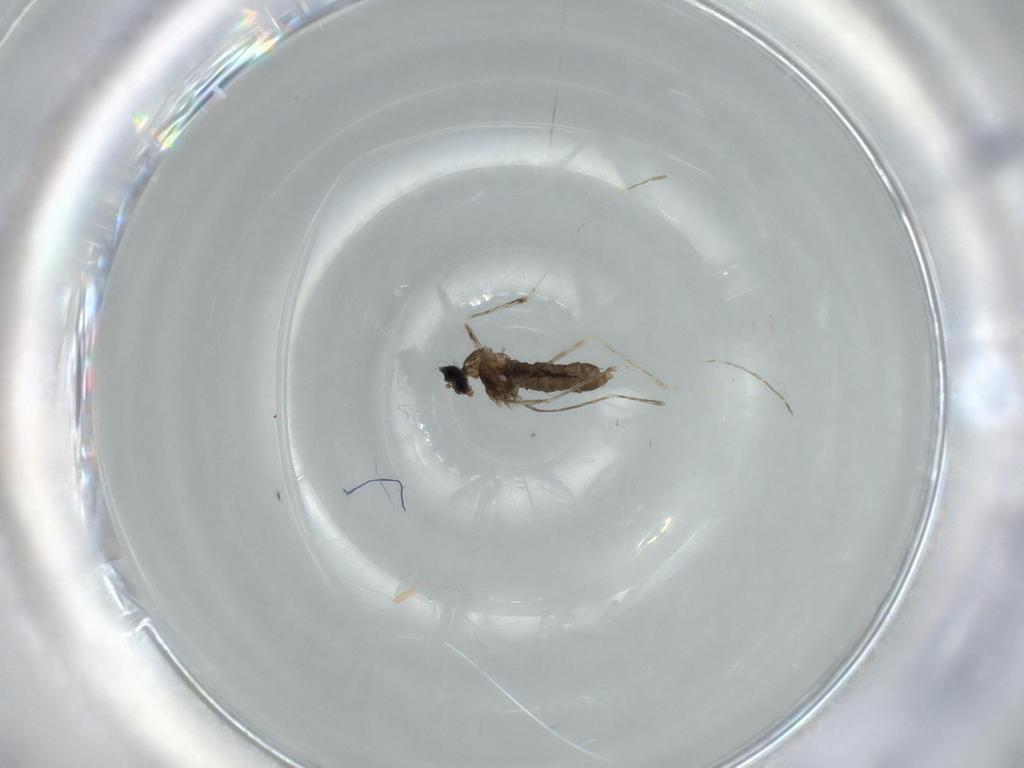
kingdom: Animalia
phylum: Arthropoda
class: Insecta
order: Diptera
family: Cecidomyiidae
